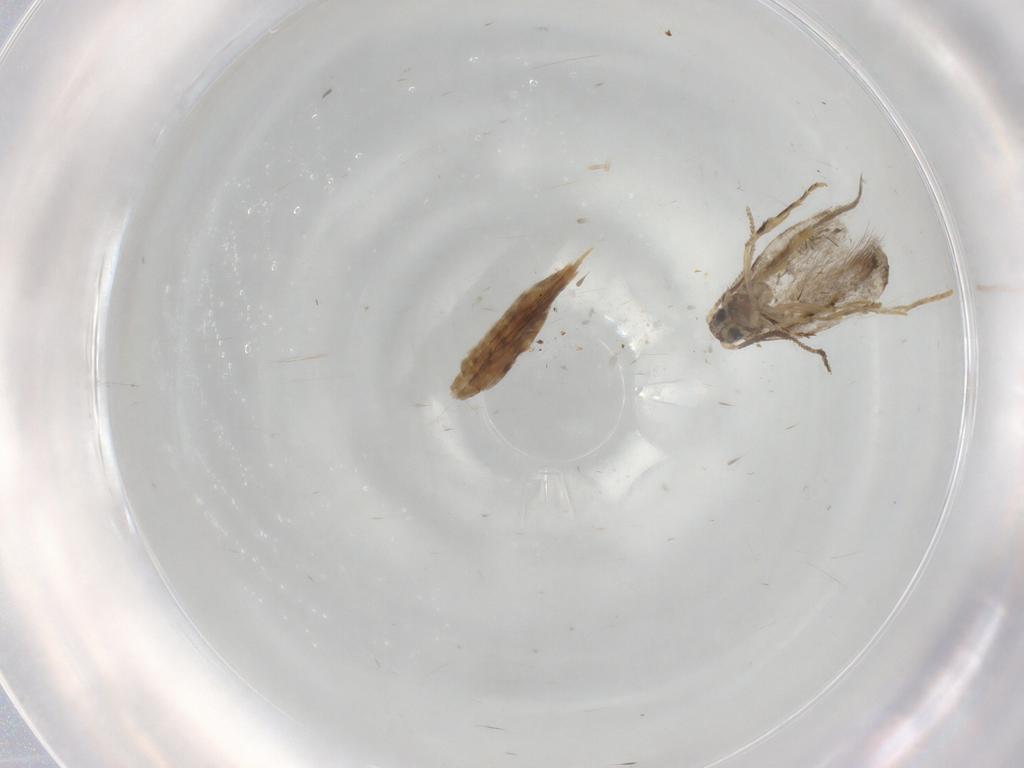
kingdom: Animalia
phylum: Arthropoda
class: Insecta
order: Lepidoptera
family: Tineidae
